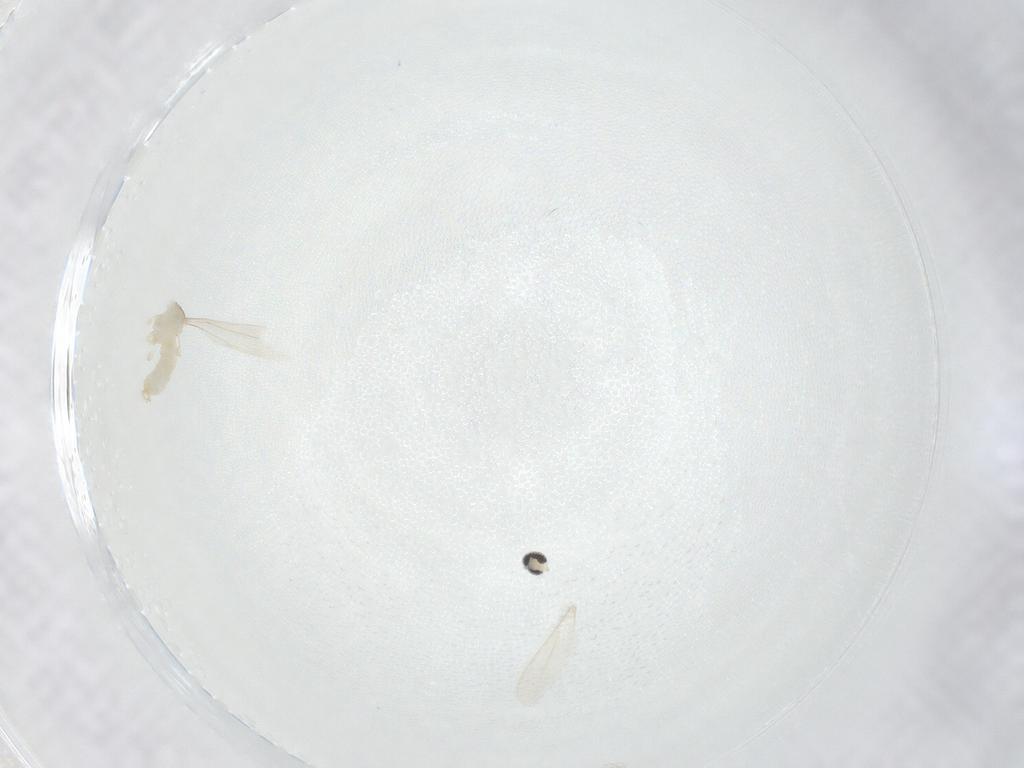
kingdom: Animalia
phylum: Arthropoda
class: Insecta
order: Diptera
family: Cecidomyiidae
